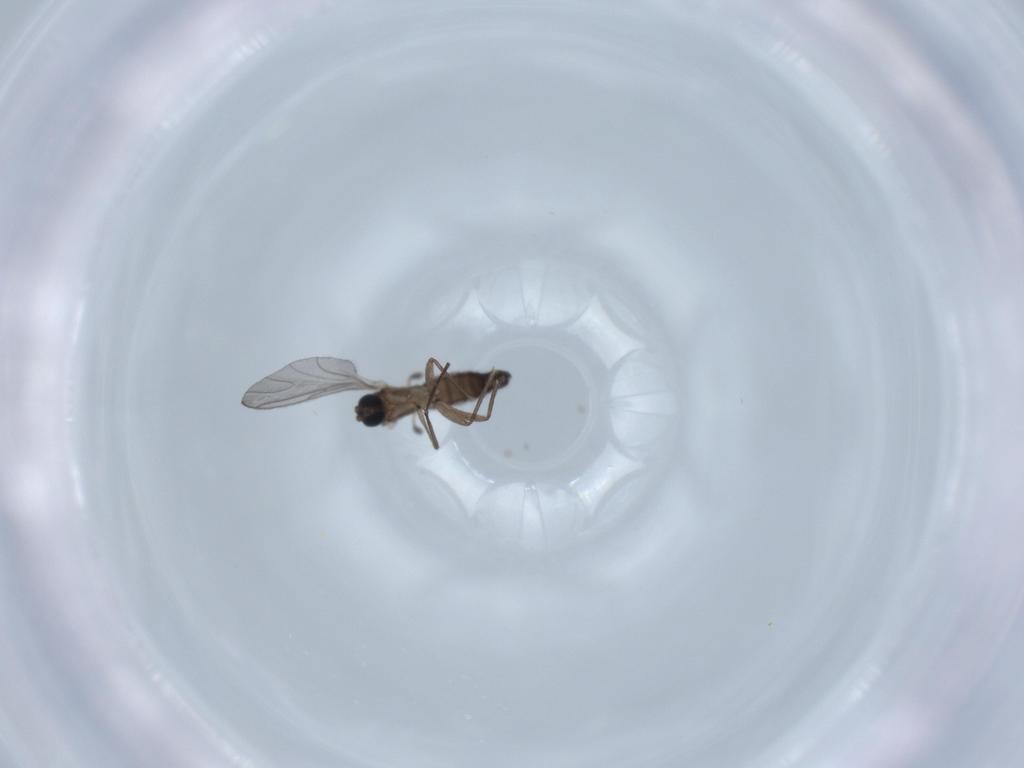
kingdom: Animalia
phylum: Arthropoda
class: Insecta
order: Diptera
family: Sciaridae
